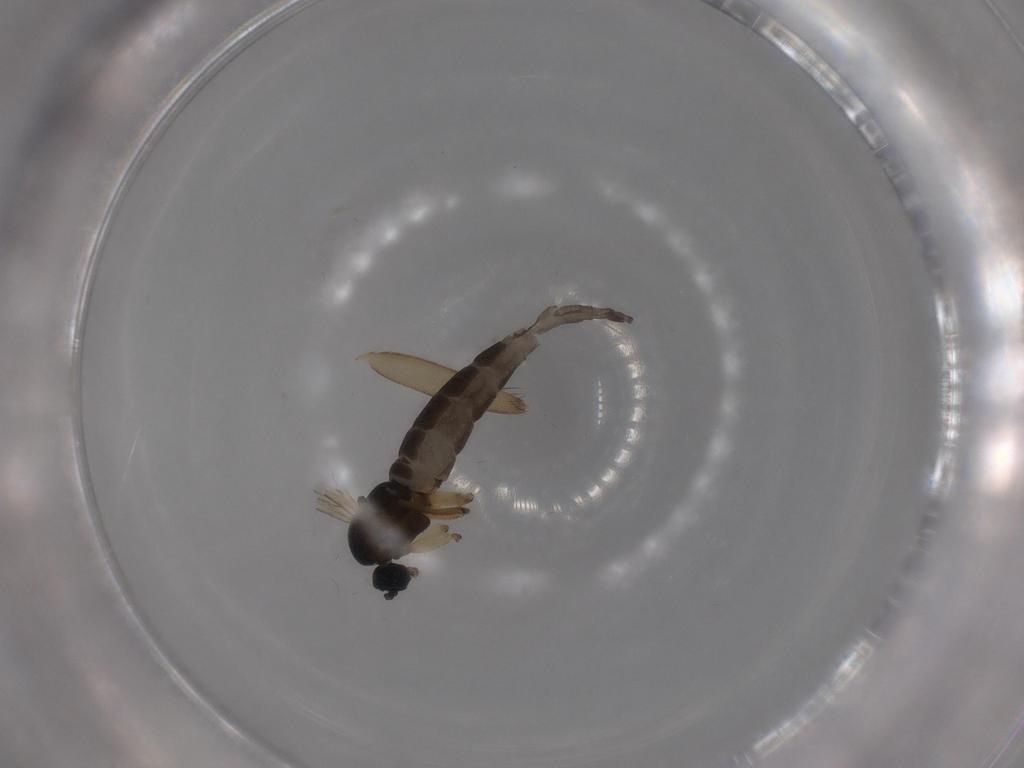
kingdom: Animalia
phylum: Arthropoda
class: Insecta
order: Diptera
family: Sciaridae
